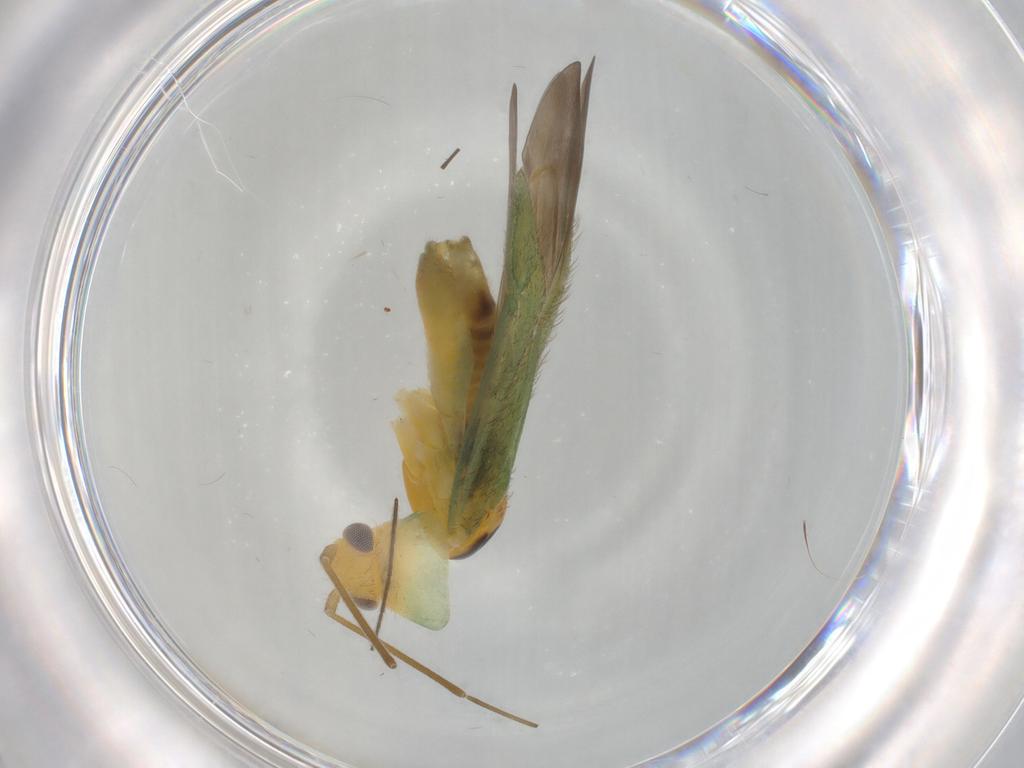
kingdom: Animalia
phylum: Arthropoda
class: Insecta
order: Hemiptera
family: Miridae
